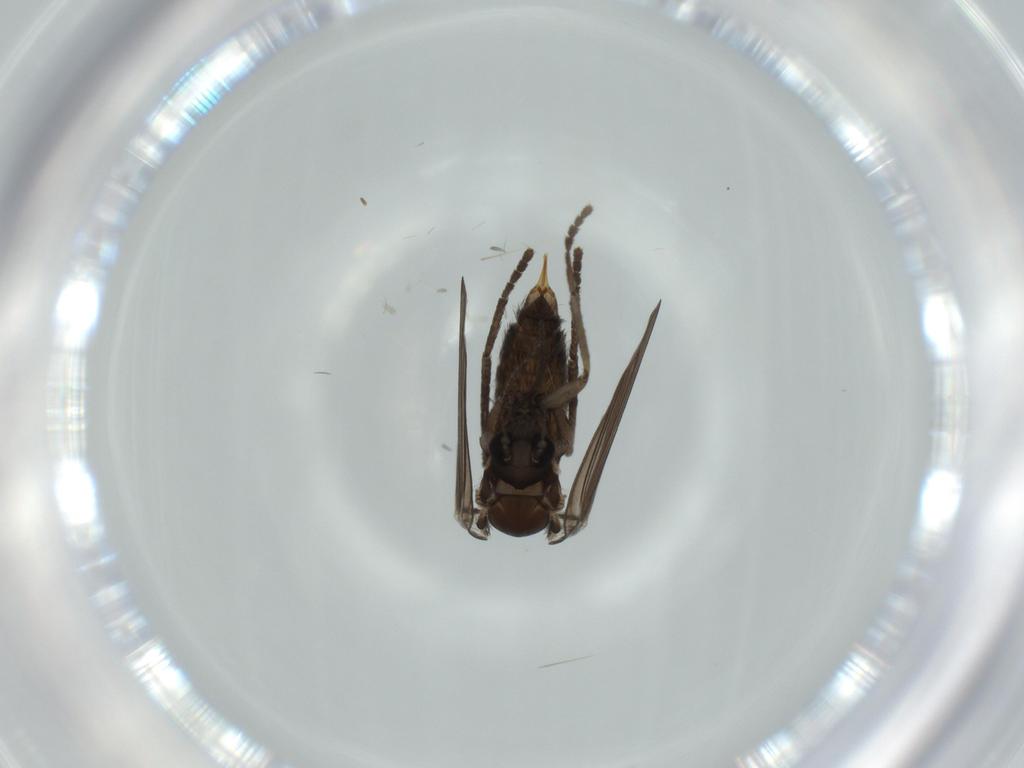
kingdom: Animalia
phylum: Arthropoda
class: Insecta
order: Diptera
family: Psychodidae
